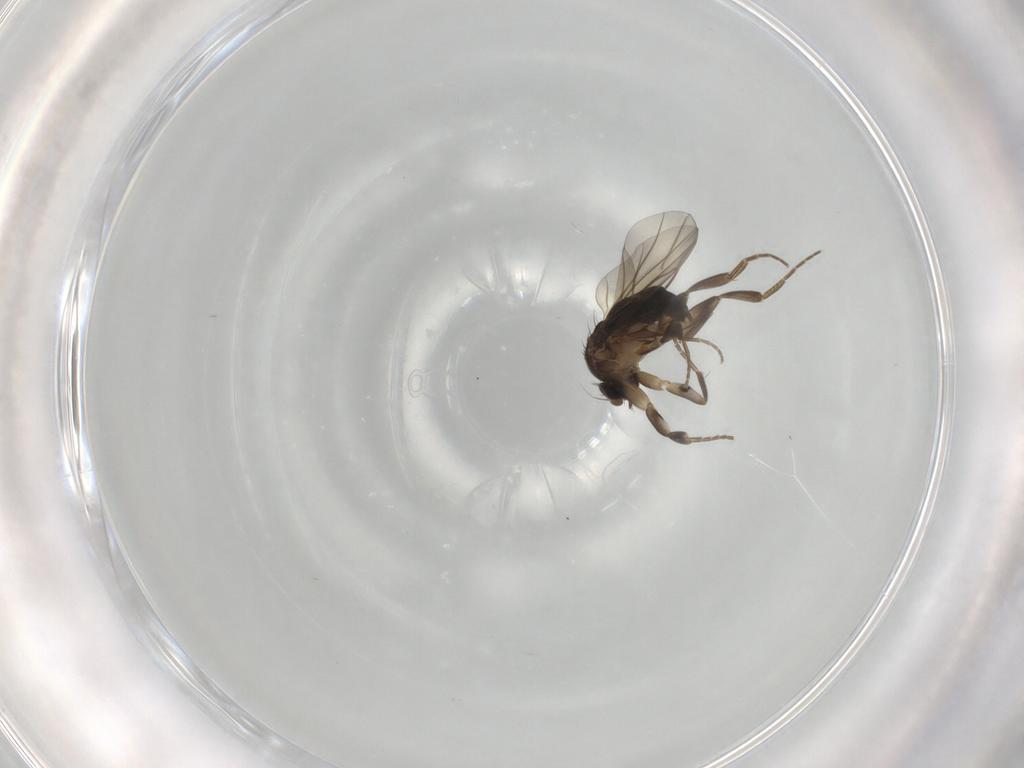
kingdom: Animalia
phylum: Arthropoda
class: Insecta
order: Diptera
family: Phoridae
